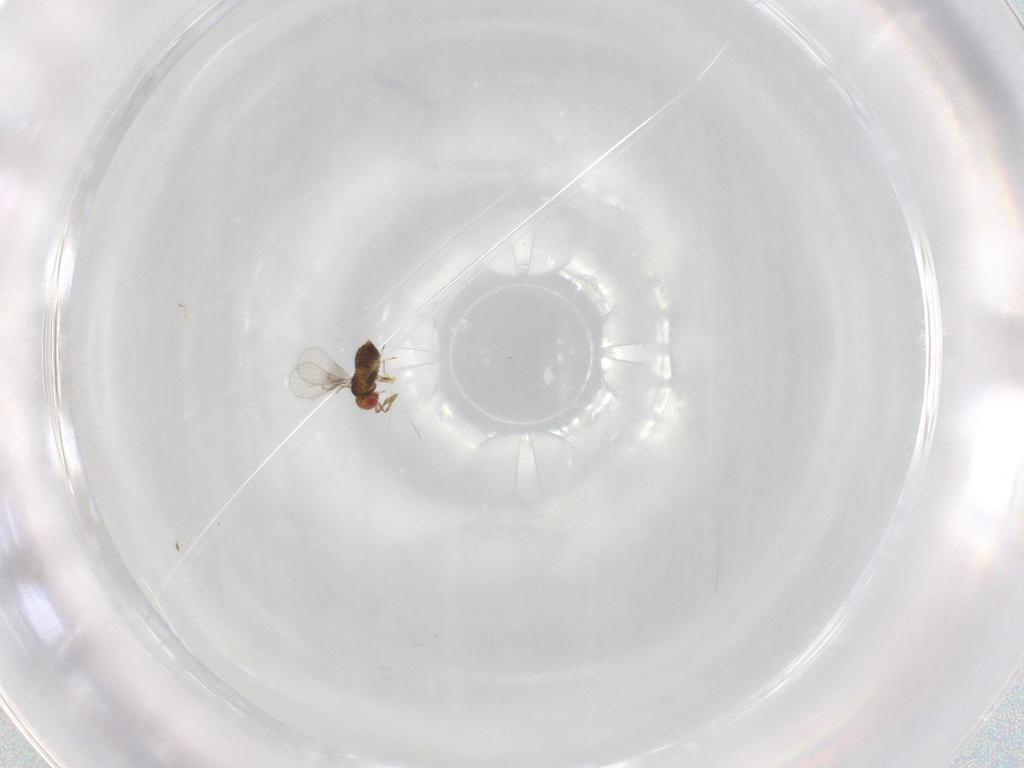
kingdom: Animalia
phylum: Arthropoda
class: Insecta
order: Hymenoptera
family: Trichogrammatidae
